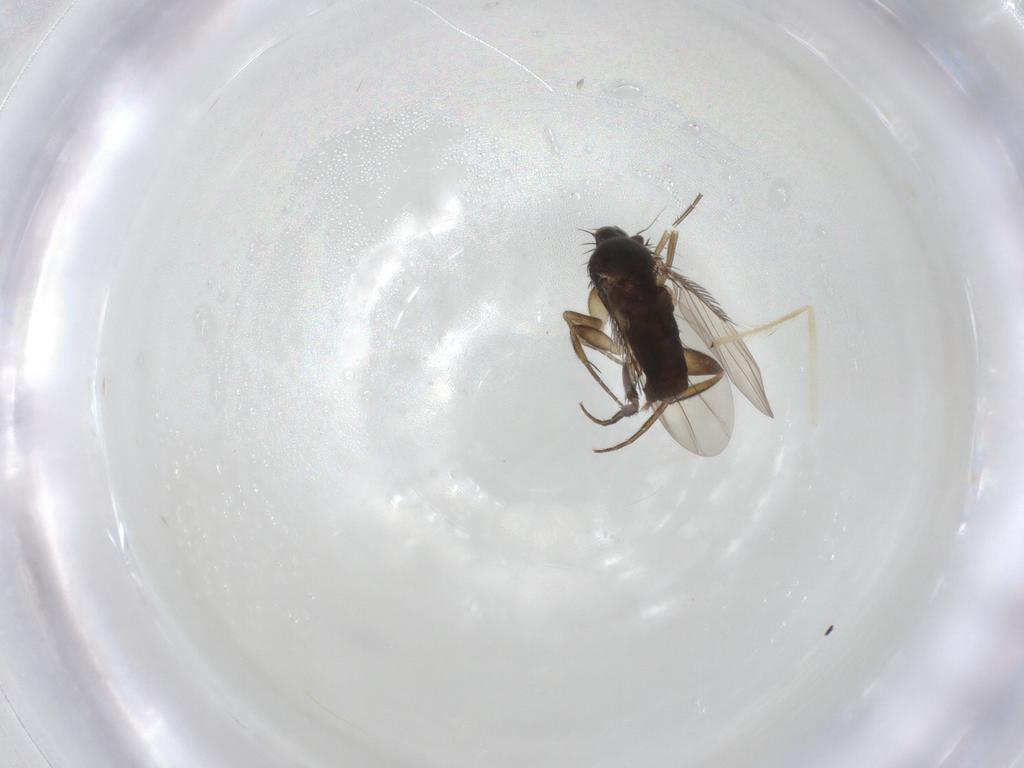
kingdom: Animalia
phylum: Arthropoda
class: Insecta
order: Diptera
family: Phoridae
